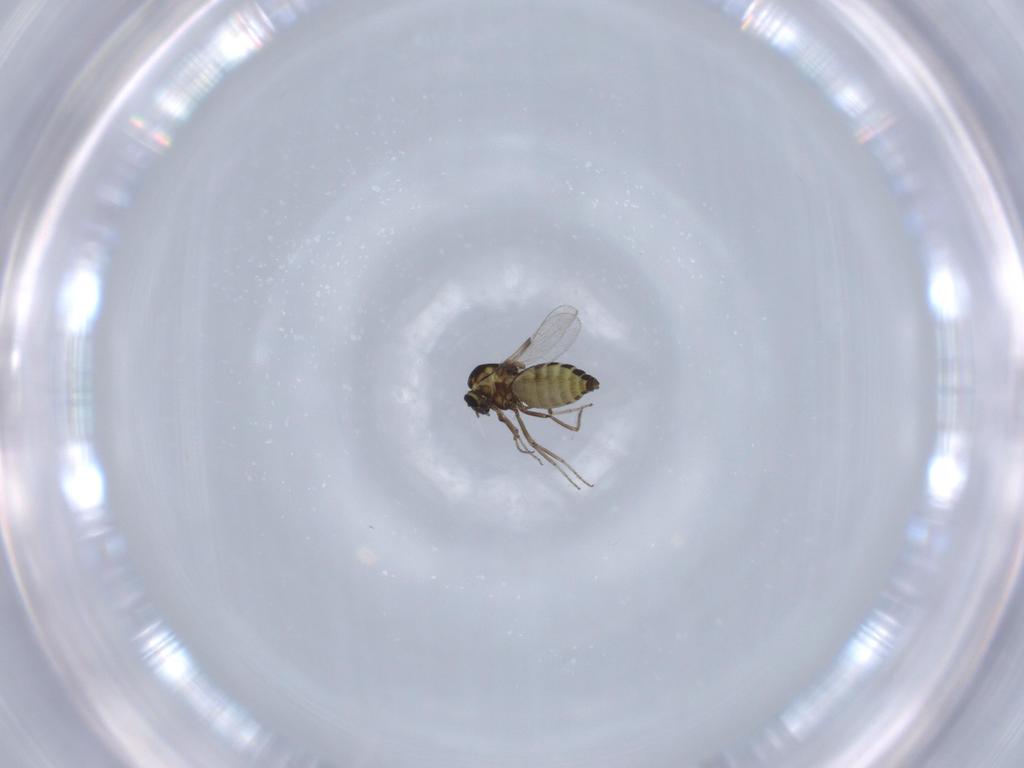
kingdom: Animalia
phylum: Arthropoda
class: Insecta
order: Diptera
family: Ceratopogonidae
